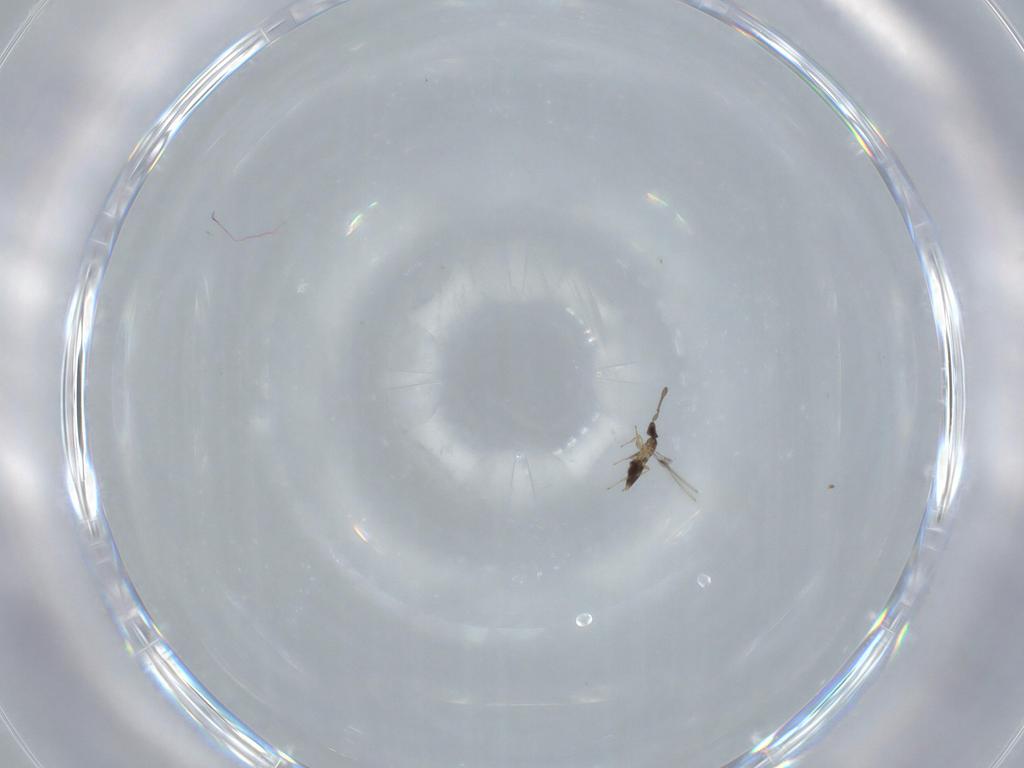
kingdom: Animalia
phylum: Arthropoda
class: Insecta
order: Hymenoptera
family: Mymaridae
